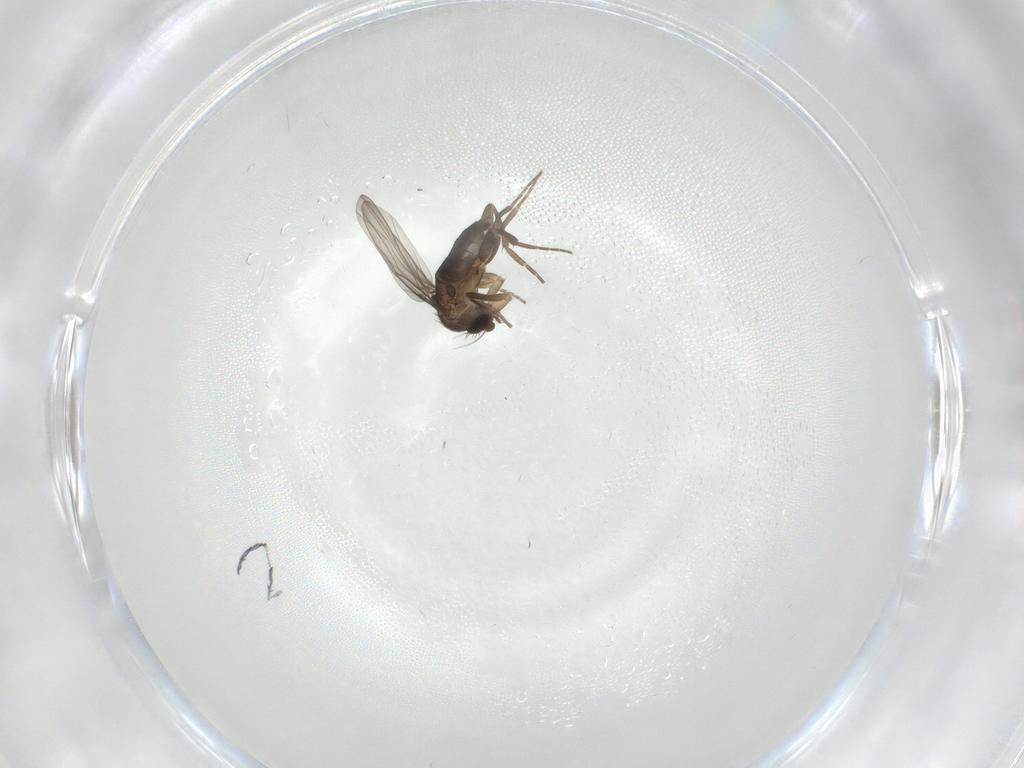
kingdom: Animalia
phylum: Arthropoda
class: Insecta
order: Diptera
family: Phoridae
